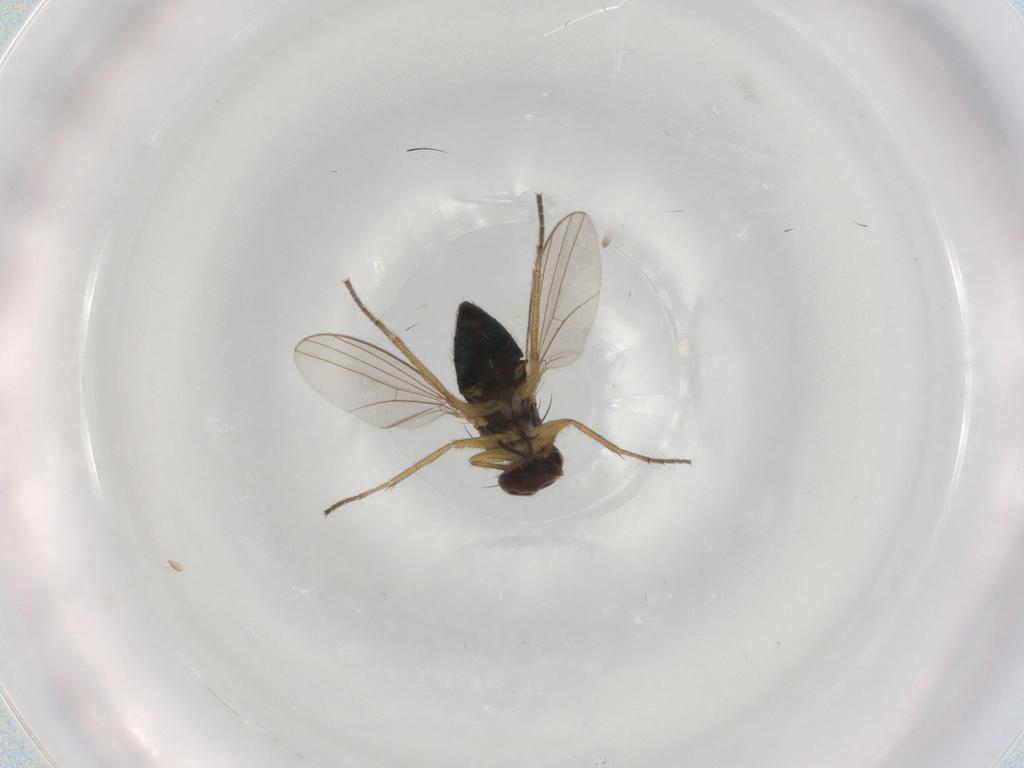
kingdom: Animalia
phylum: Arthropoda
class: Insecta
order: Diptera
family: Dolichopodidae
